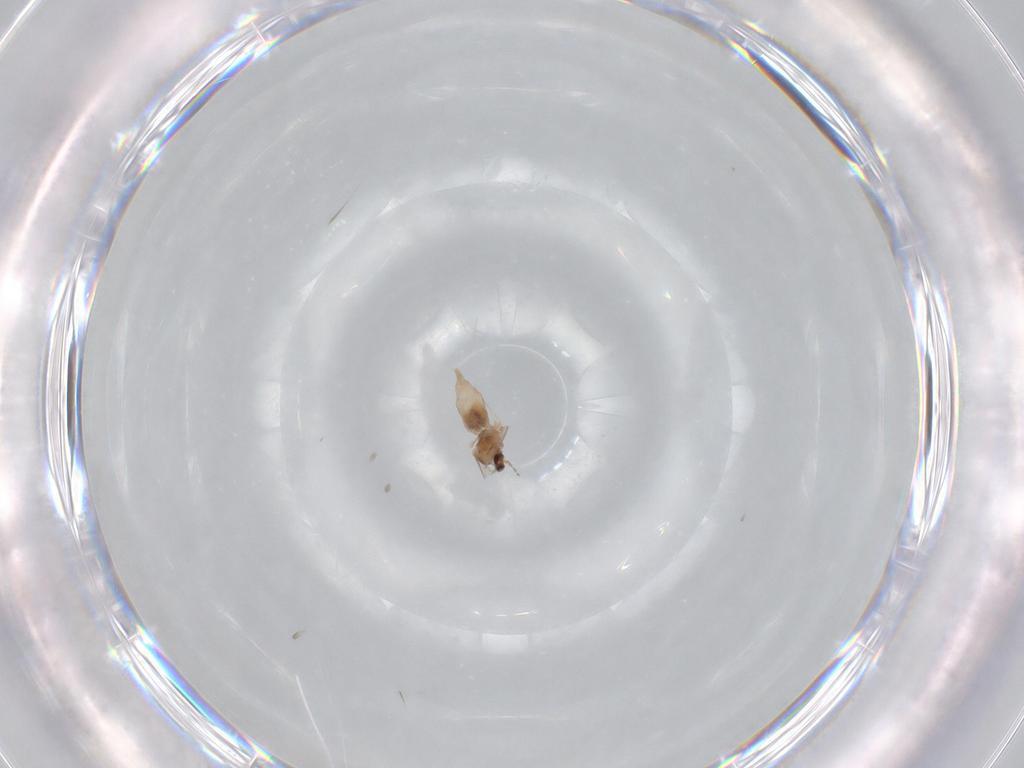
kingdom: Animalia
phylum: Arthropoda
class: Insecta
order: Diptera
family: Cecidomyiidae
